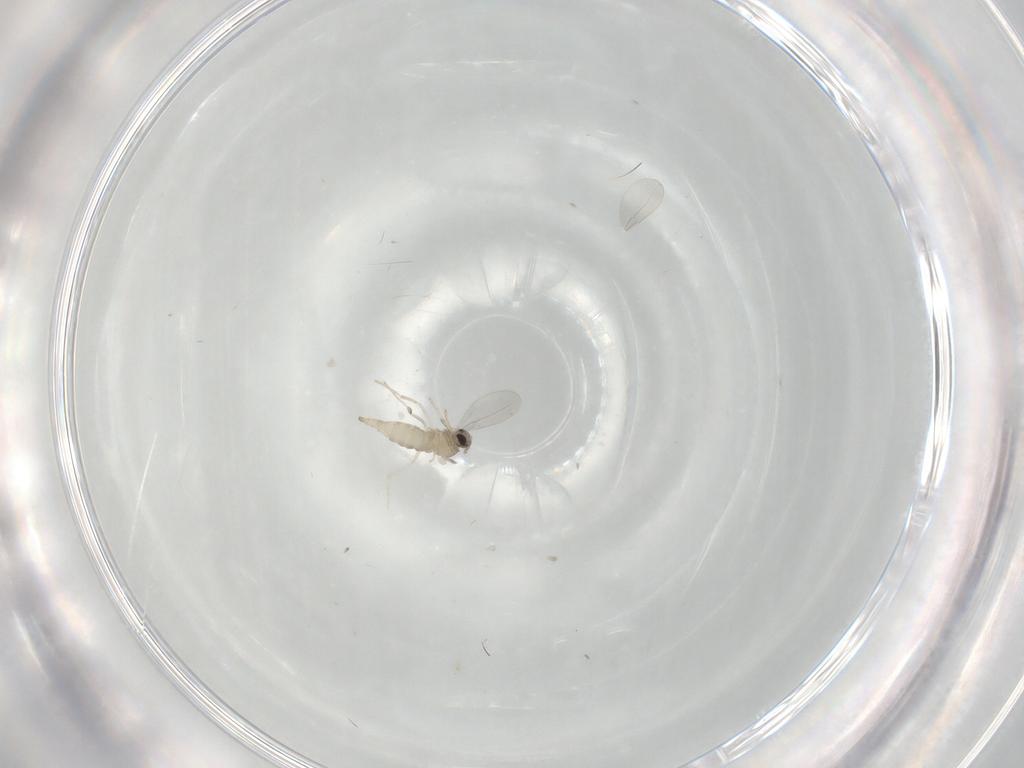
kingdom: Animalia
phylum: Arthropoda
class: Insecta
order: Diptera
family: Cecidomyiidae
